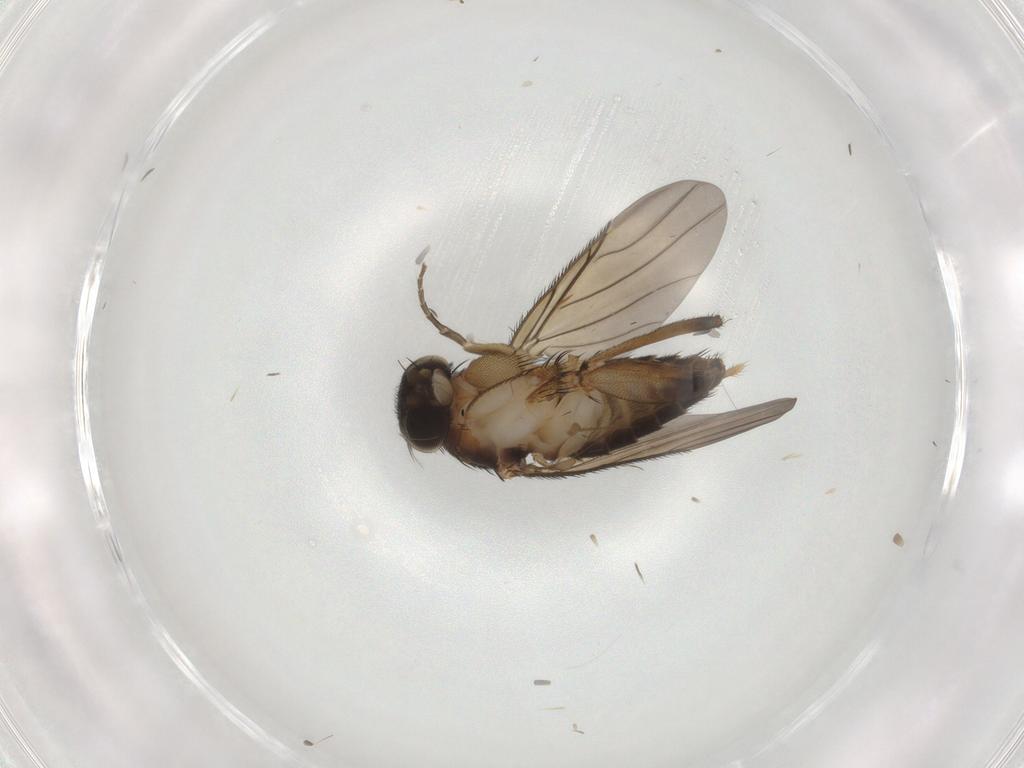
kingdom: Animalia
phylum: Arthropoda
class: Insecta
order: Diptera
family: Phoridae
